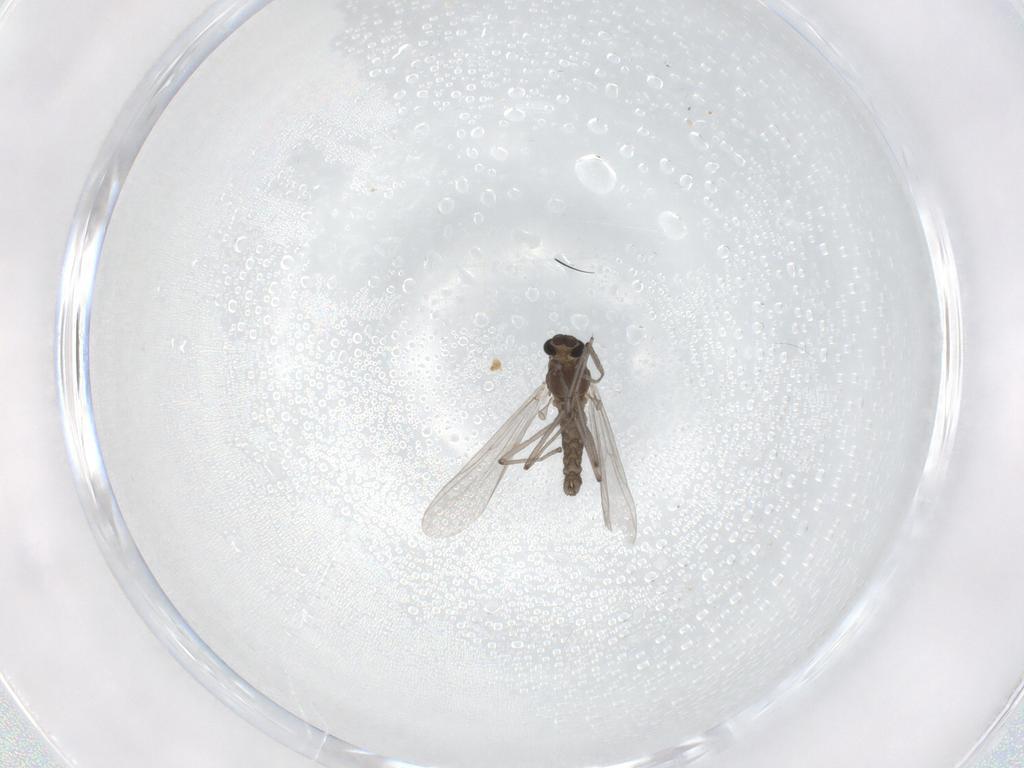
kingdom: Animalia
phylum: Arthropoda
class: Insecta
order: Diptera
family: Chironomidae
